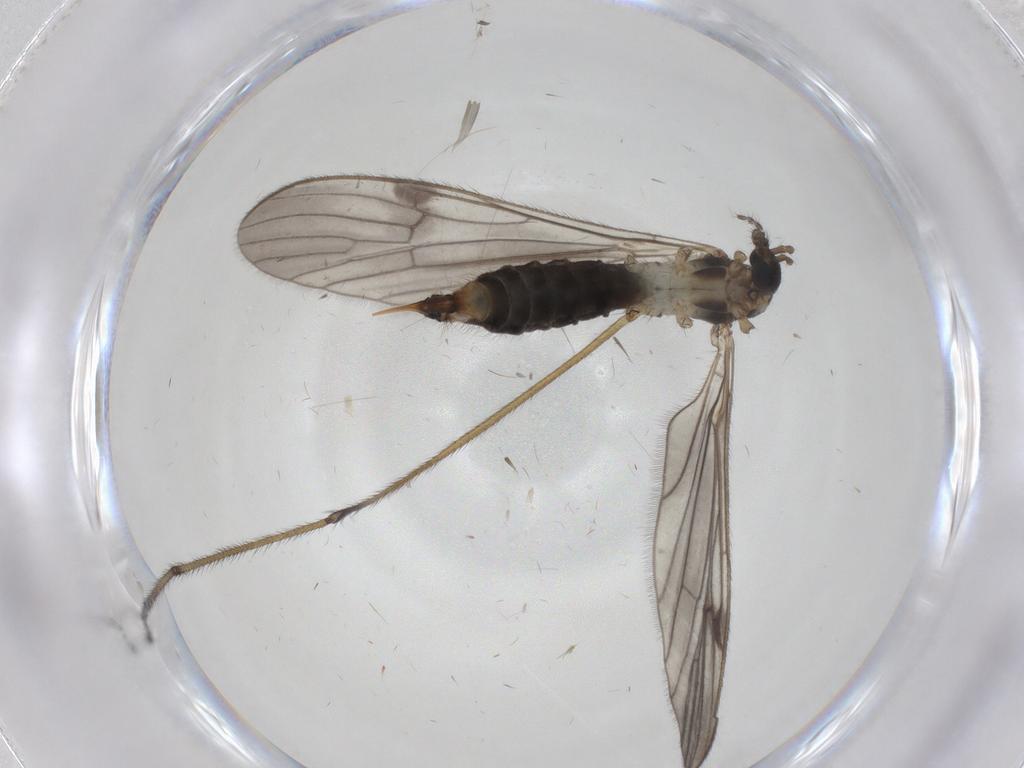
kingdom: Animalia
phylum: Arthropoda
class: Insecta
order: Diptera
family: Limoniidae
